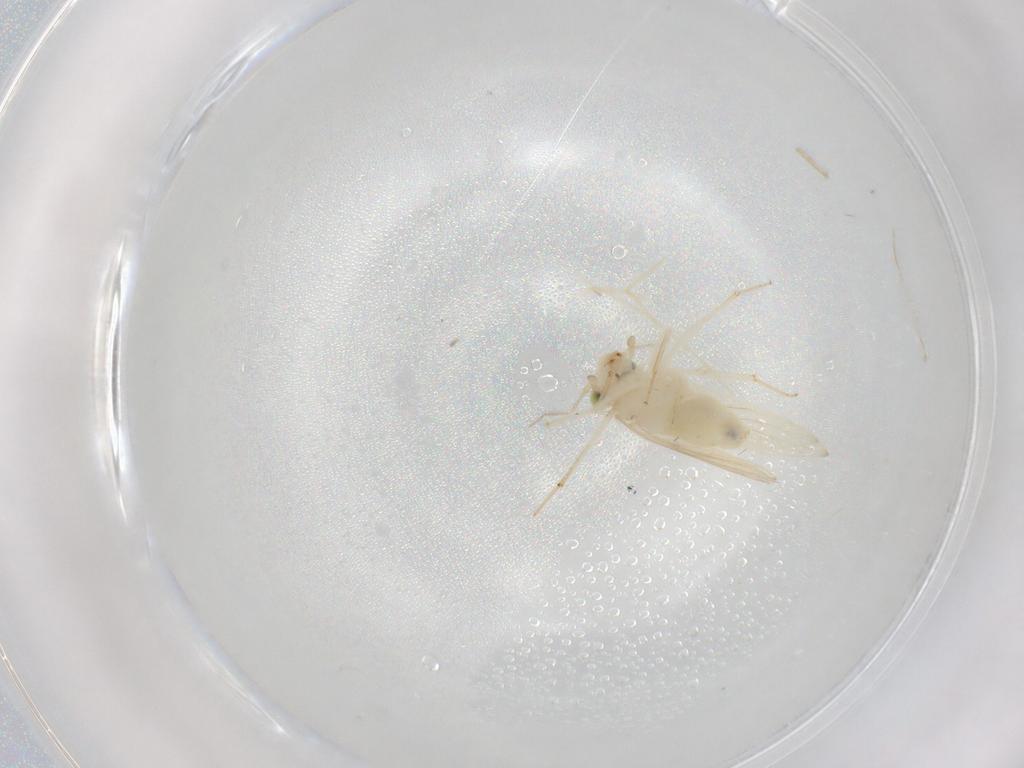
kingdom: Animalia
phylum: Arthropoda
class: Insecta
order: Psocodea
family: Lepidopsocidae
